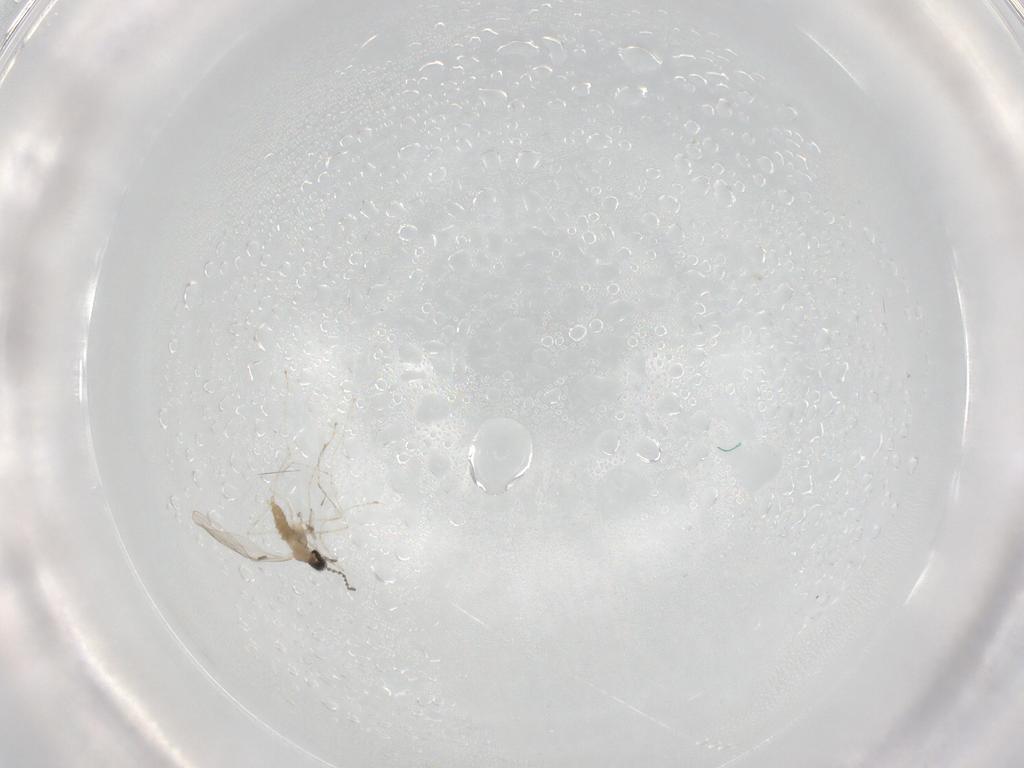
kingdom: Animalia
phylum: Arthropoda
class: Insecta
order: Diptera
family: Cecidomyiidae
